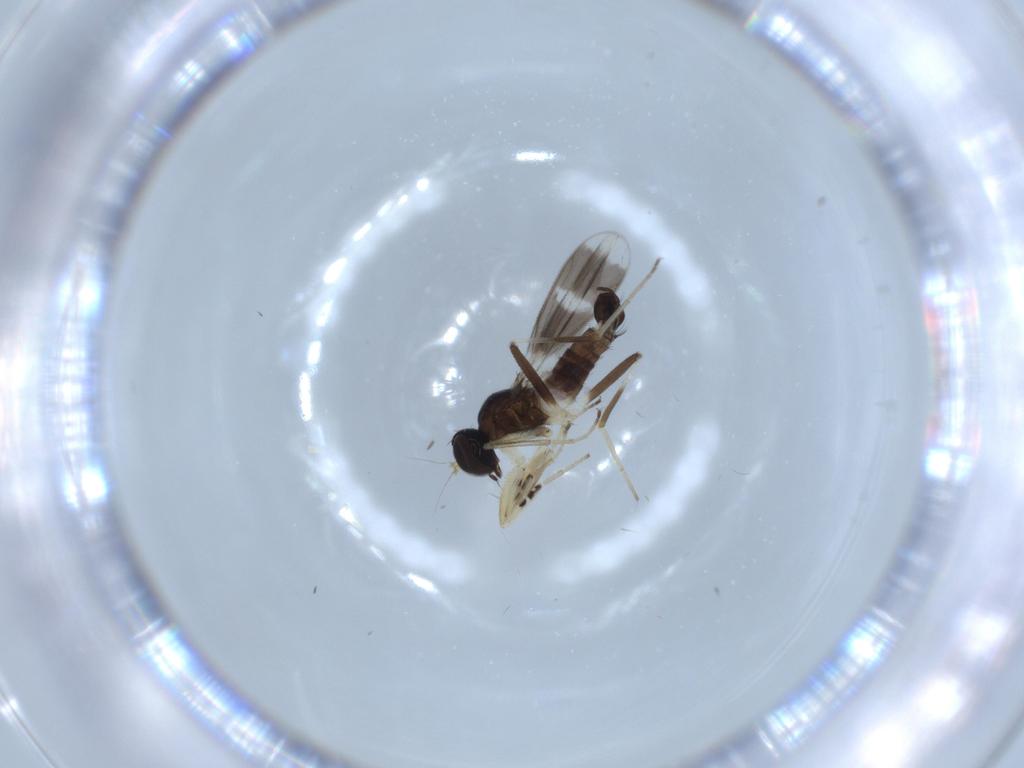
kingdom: Animalia
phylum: Arthropoda
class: Insecta
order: Diptera
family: Hybotidae
